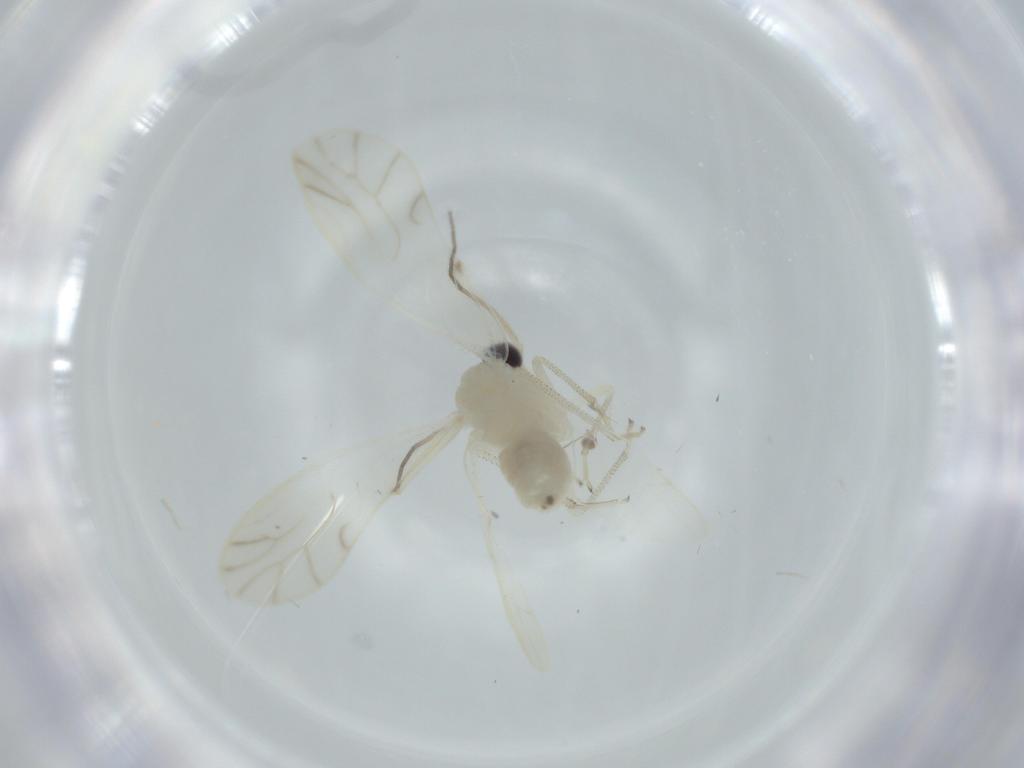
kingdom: Animalia
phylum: Arthropoda
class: Insecta
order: Psocodea
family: Caeciliusidae
